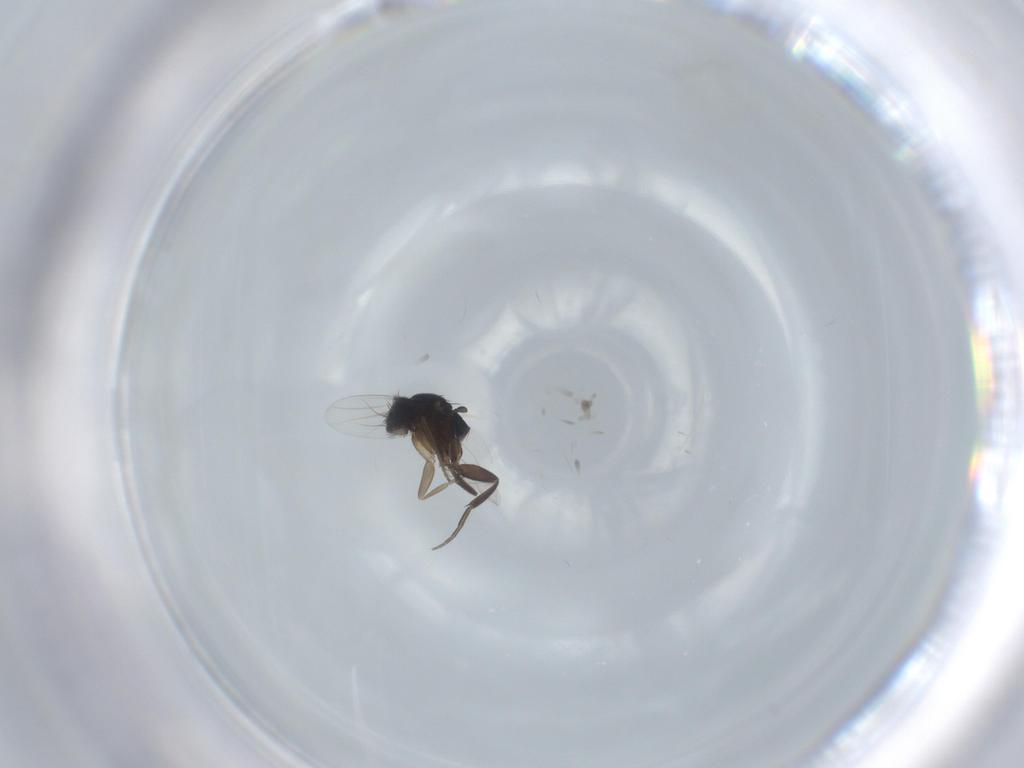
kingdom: Animalia
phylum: Arthropoda
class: Insecta
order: Diptera
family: Phoridae
